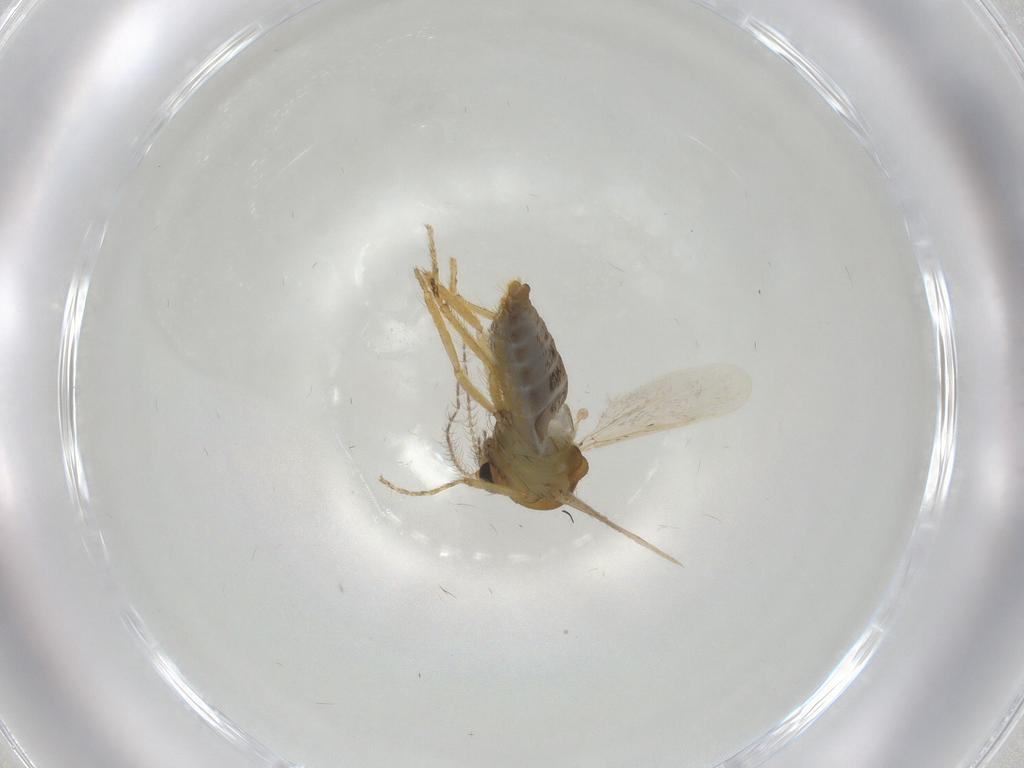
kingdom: Animalia
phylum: Arthropoda
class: Insecta
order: Diptera
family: Ceratopogonidae
